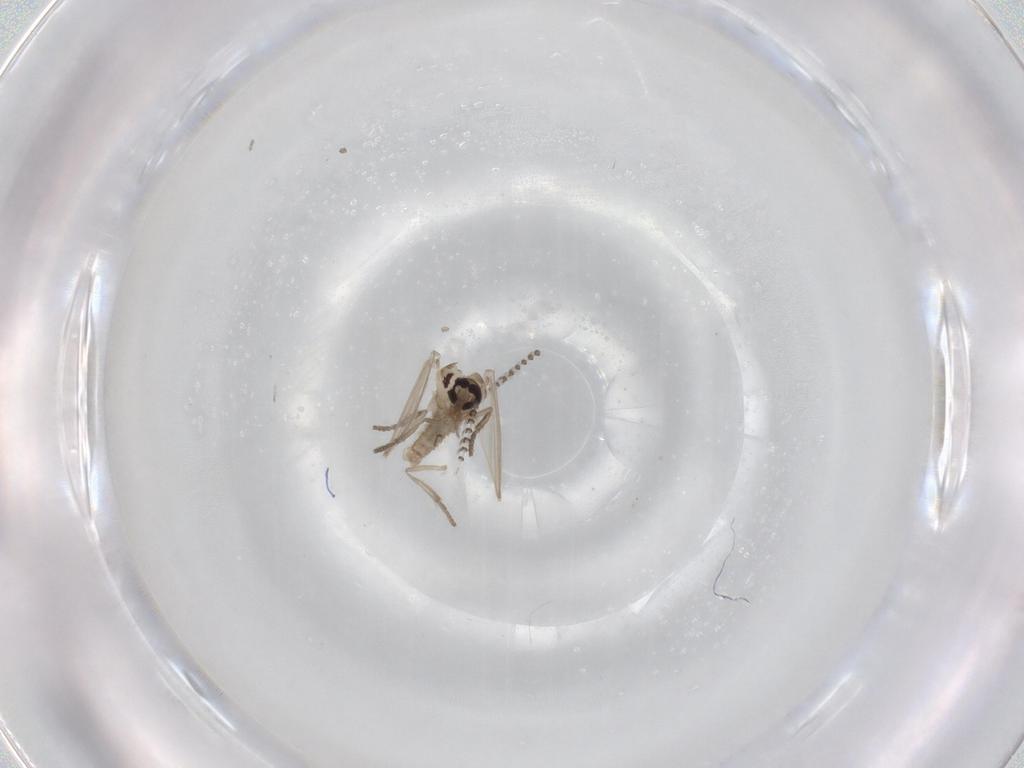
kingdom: Animalia
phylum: Arthropoda
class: Insecta
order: Diptera
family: Psychodidae
